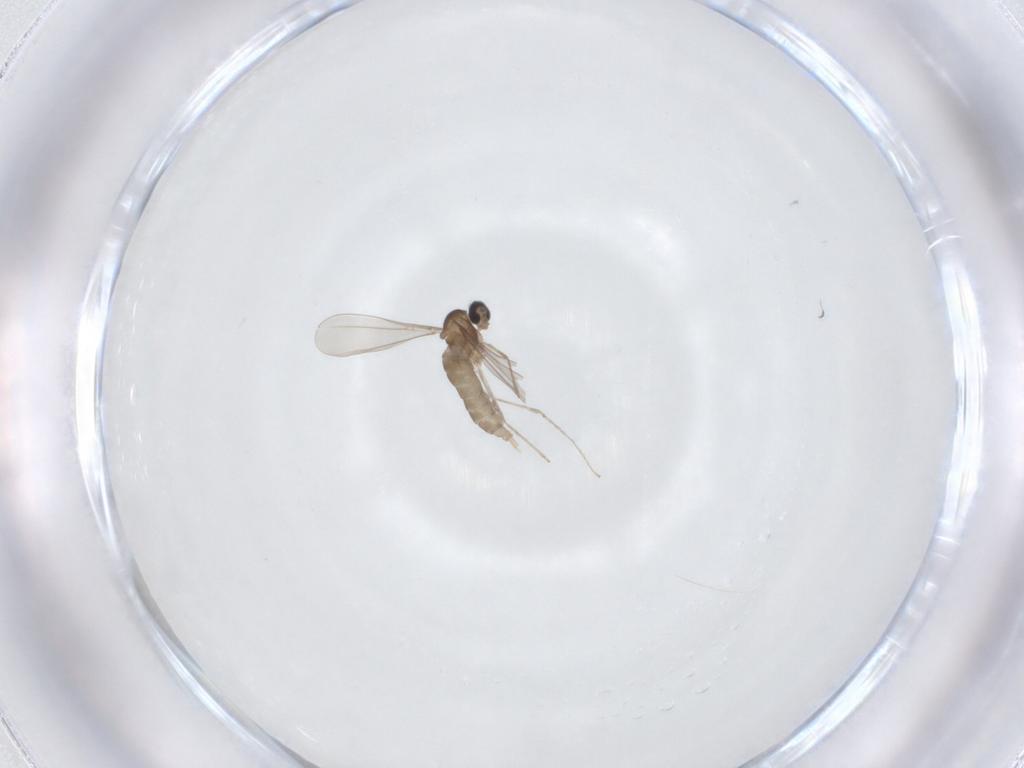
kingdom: Animalia
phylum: Arthropoda
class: Insecta
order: Diptera
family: Cecidomyiidae
